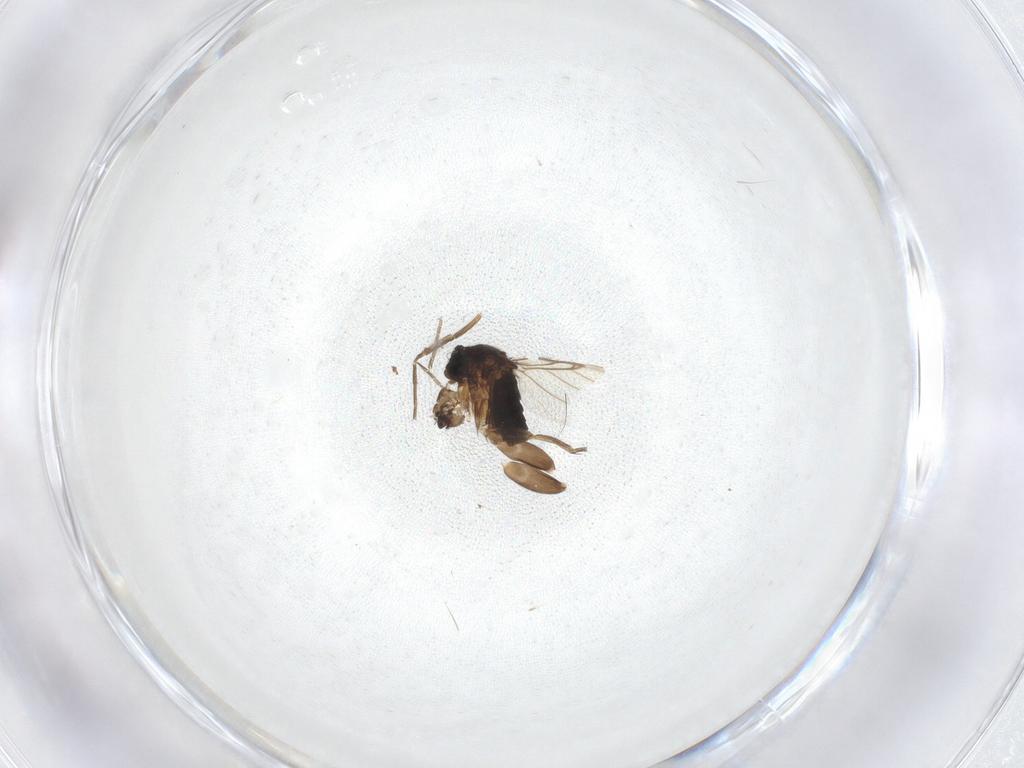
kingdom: Animalia
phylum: Arthropoda
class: Insecta
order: Diptera
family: Phoridae
